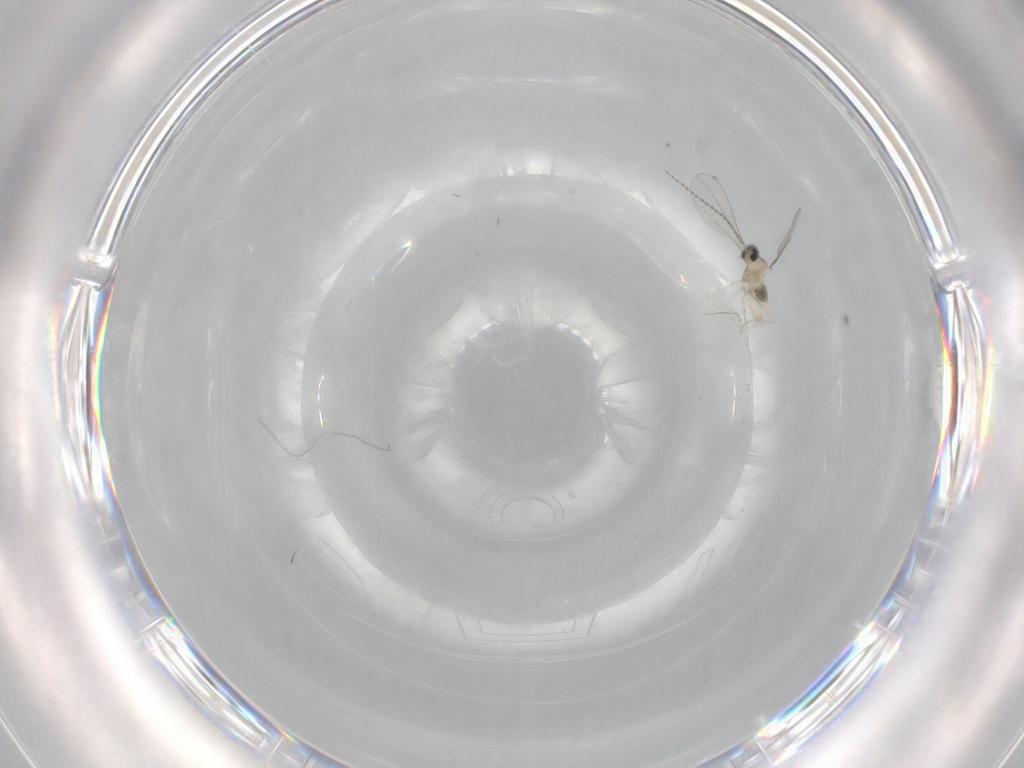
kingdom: Animalia
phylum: Arthropoda
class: Insecta
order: Diptera
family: Cecidomyiidae
